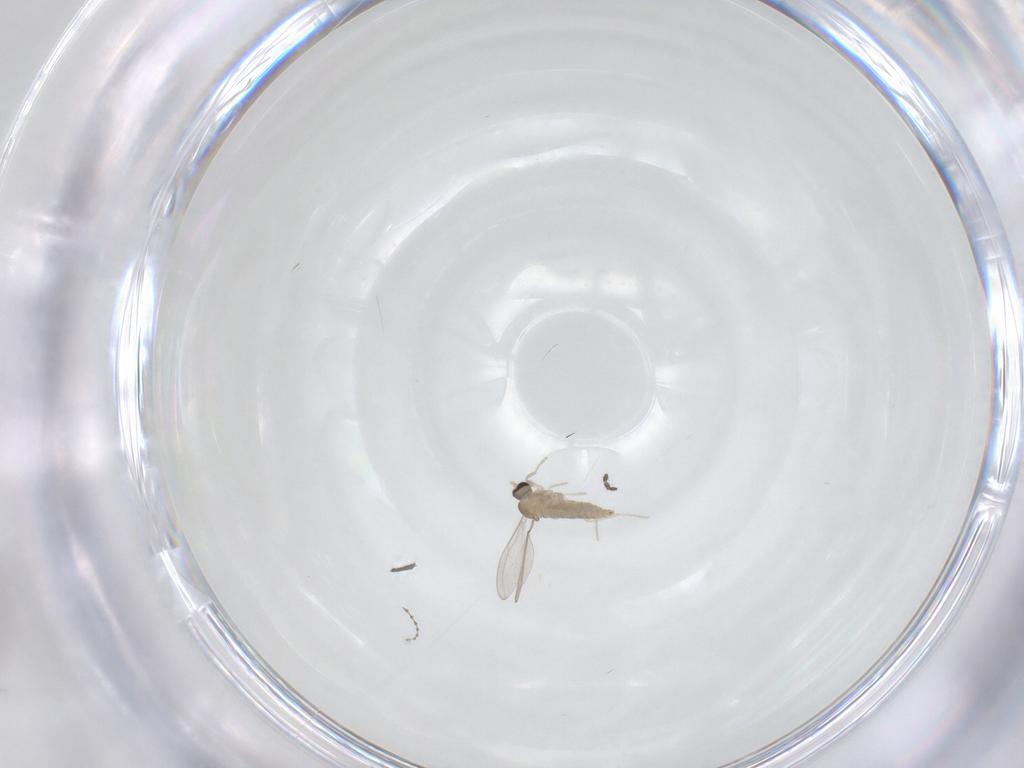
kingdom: Animalia
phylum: Arthropoda
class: Insecta
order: Diptera
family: Cecidomyiidae
